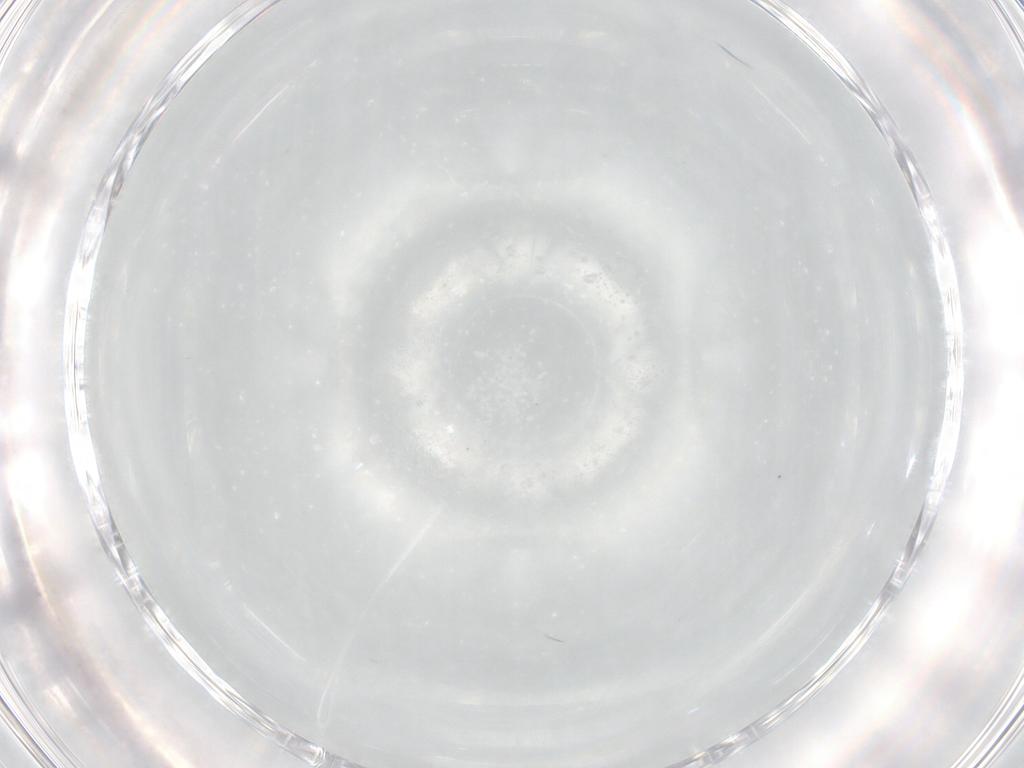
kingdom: Animalia
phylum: Arthropoda
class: Insecta
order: Diptera
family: Chironomidae
